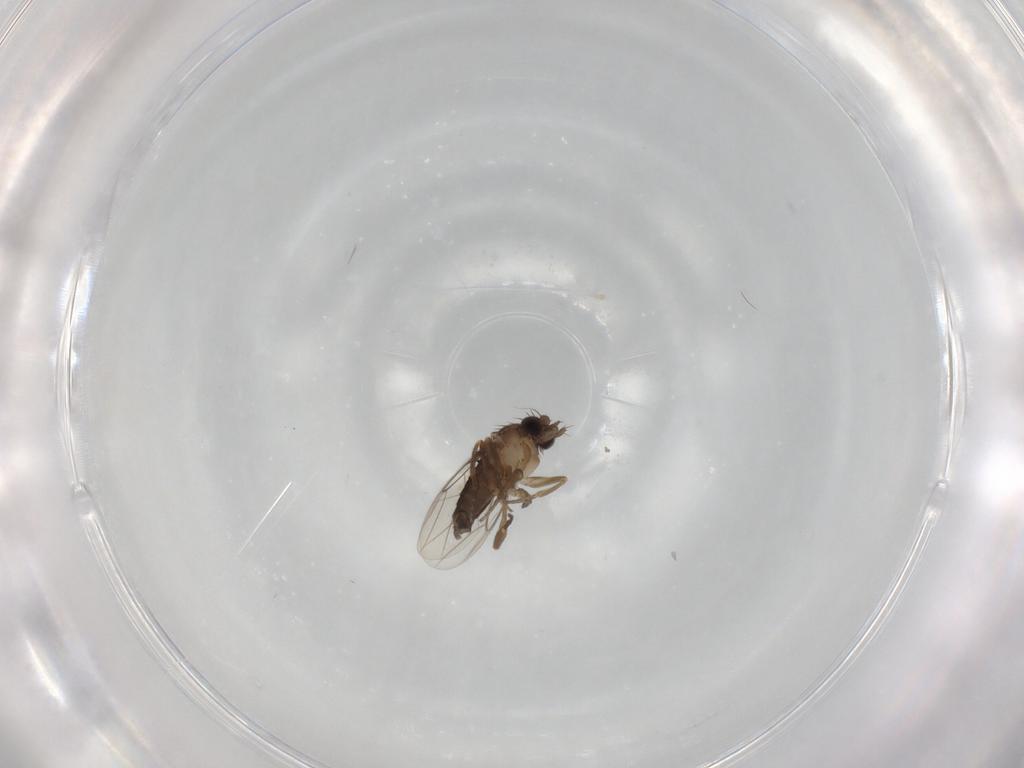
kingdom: Animalia
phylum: Arthropoda
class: Insecta
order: Diptera
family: Phoridae
